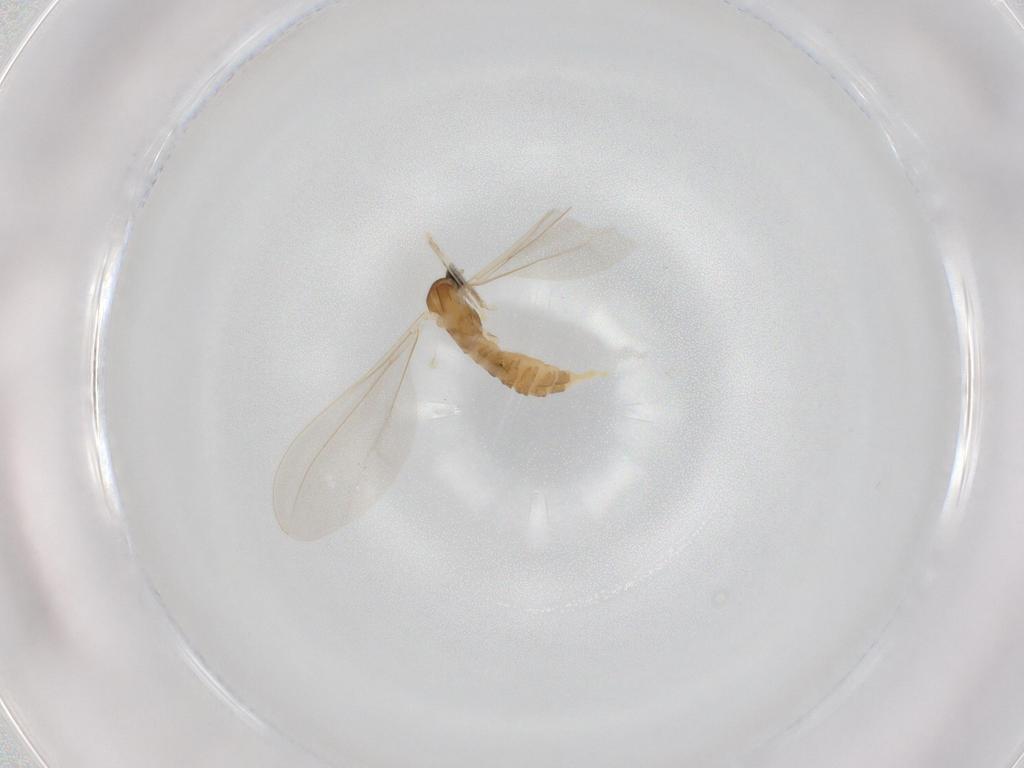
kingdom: Animalia
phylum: Arthropoda
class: Insecta
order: Diptera
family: Cecidomyiidae
